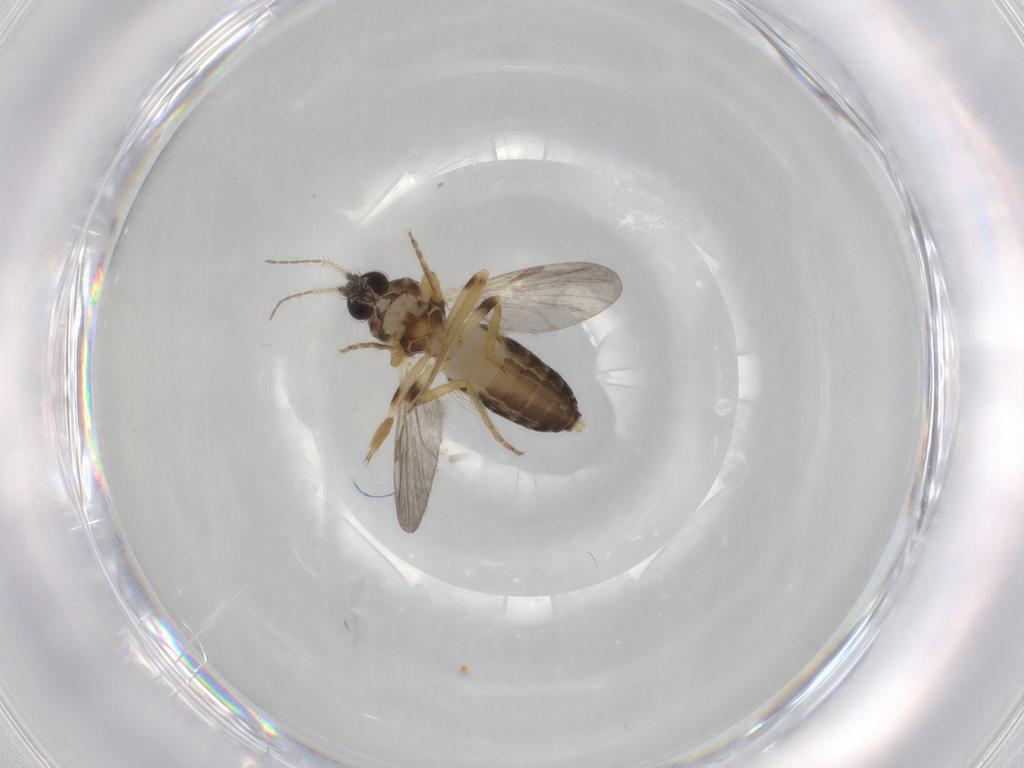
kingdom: Animalia
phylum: Arthropoda
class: Insecta
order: Diptera
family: Ceratopogonidae
